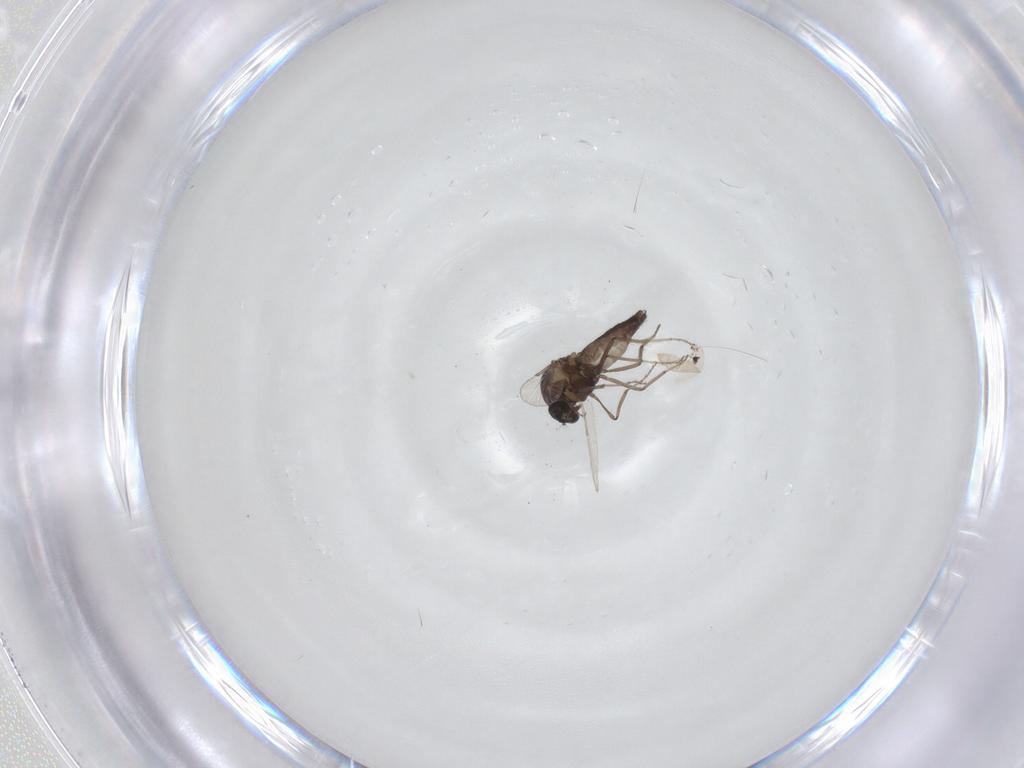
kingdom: Animalia
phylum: Arthropoda
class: Insecta
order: Diptera
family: Ceratopogonidae
